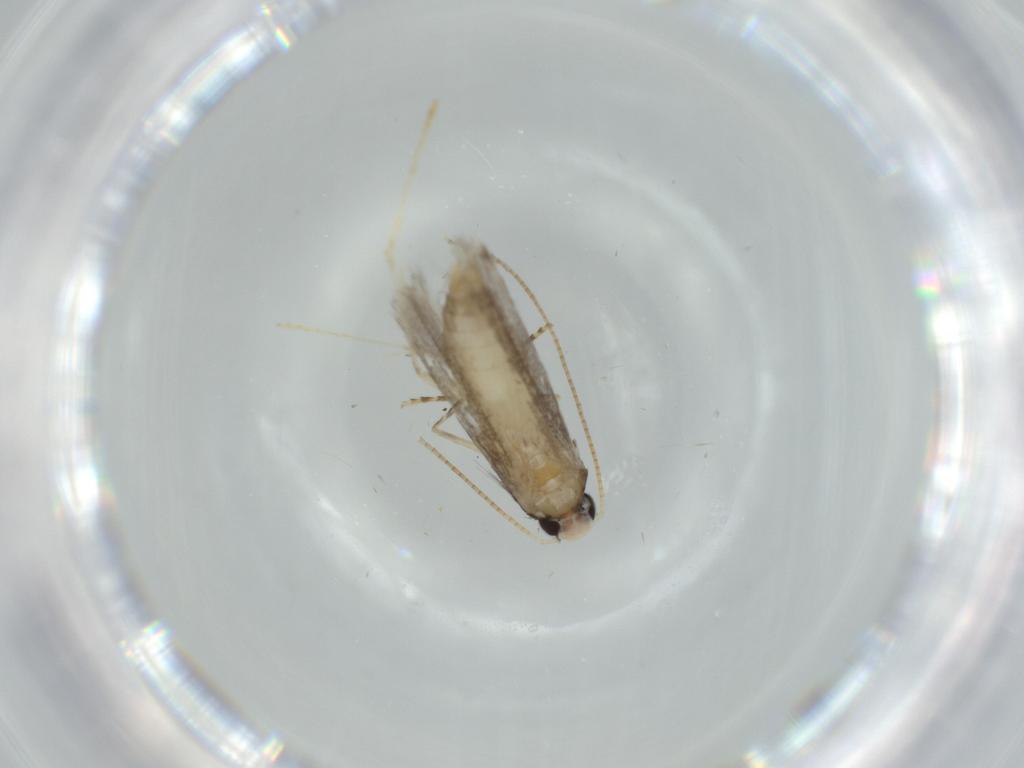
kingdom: Animalia
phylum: Arthropoda
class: Insecta
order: Lepidoptera
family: Gracillariidae
